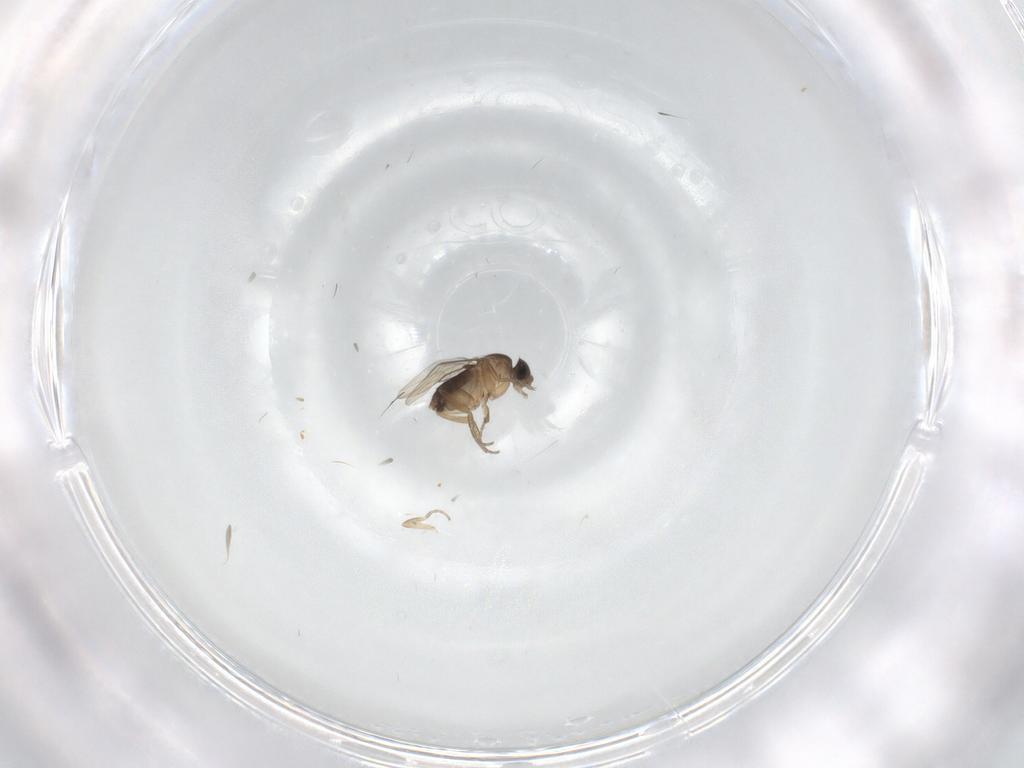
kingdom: Animalia
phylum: Arthropoda
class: Insecta
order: Diptera
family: Phoridae
